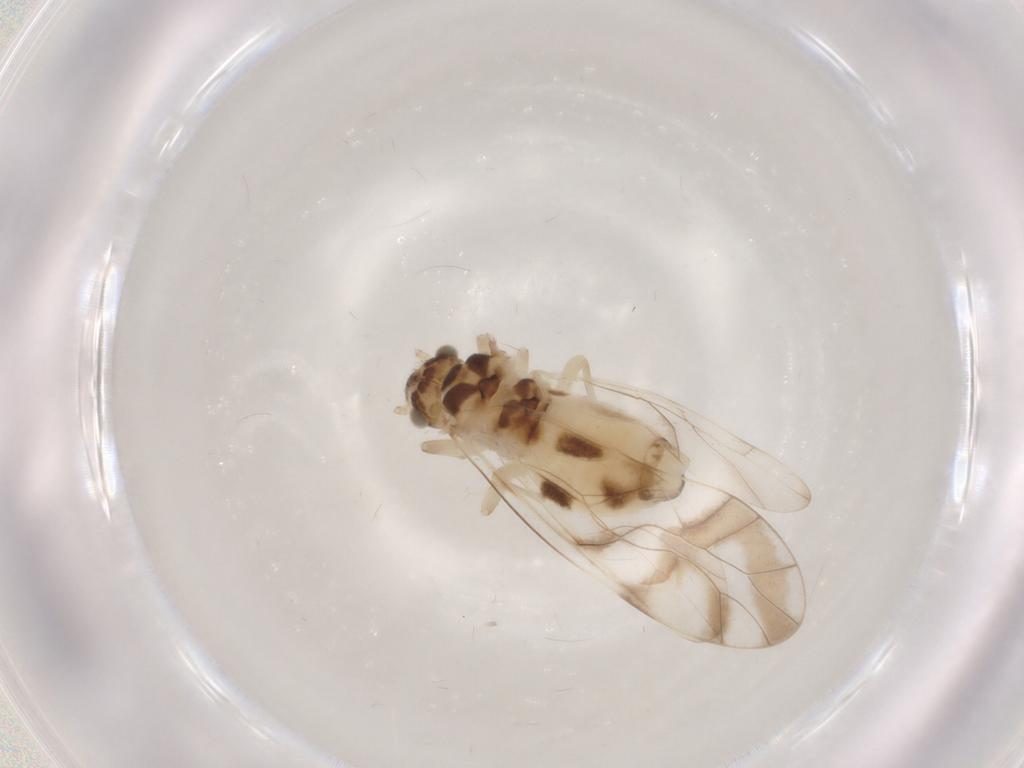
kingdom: Animalia
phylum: Arthropoda
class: Insecta
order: Psocodea
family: Stenopsocidae
